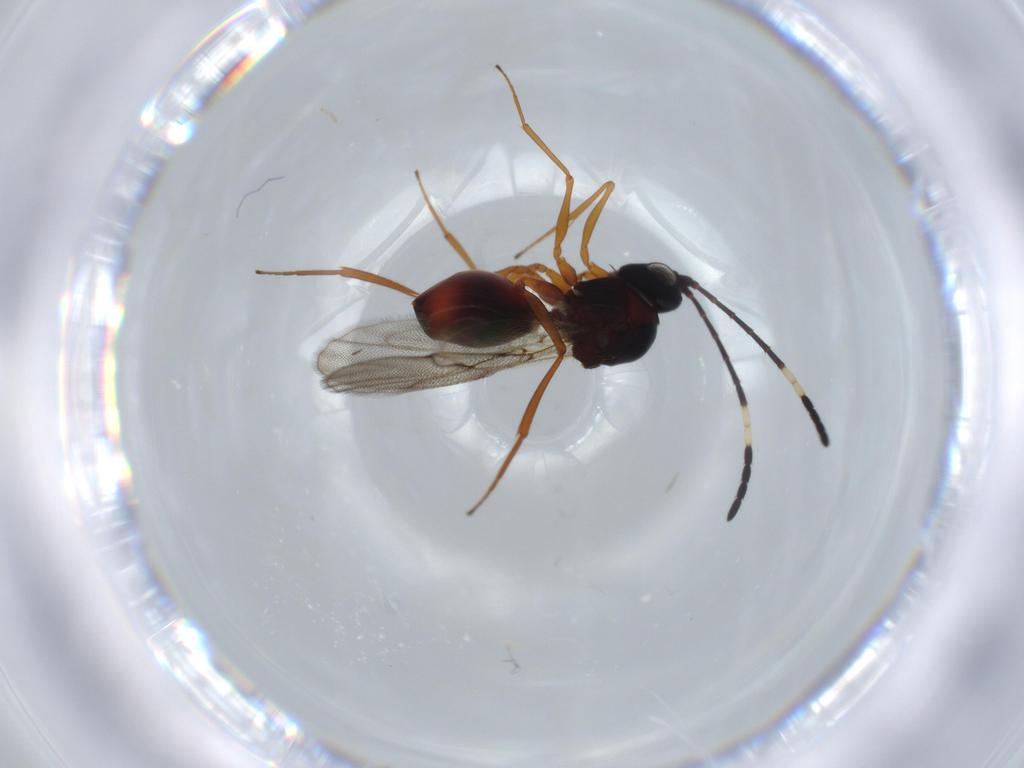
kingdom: Animalia
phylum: Arthropoda
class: Insecta
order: Hymenoptera
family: Figitidae
